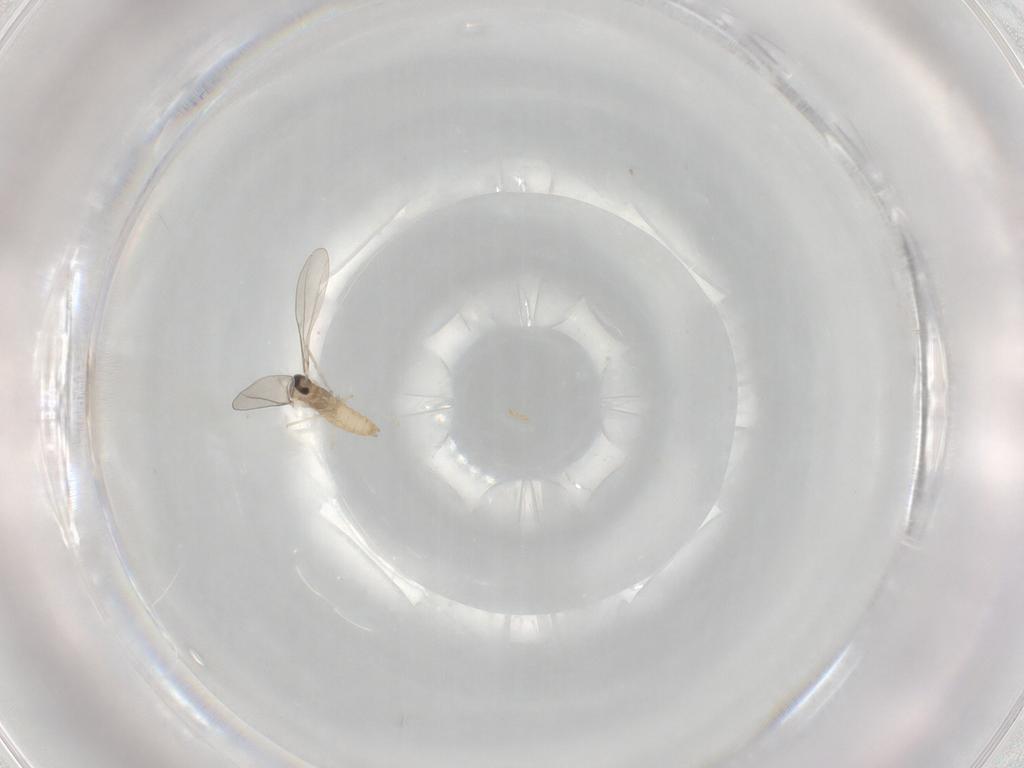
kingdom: Animalia
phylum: Arthropoda
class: Insecta
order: Diptera
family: Cecidomyiidae
